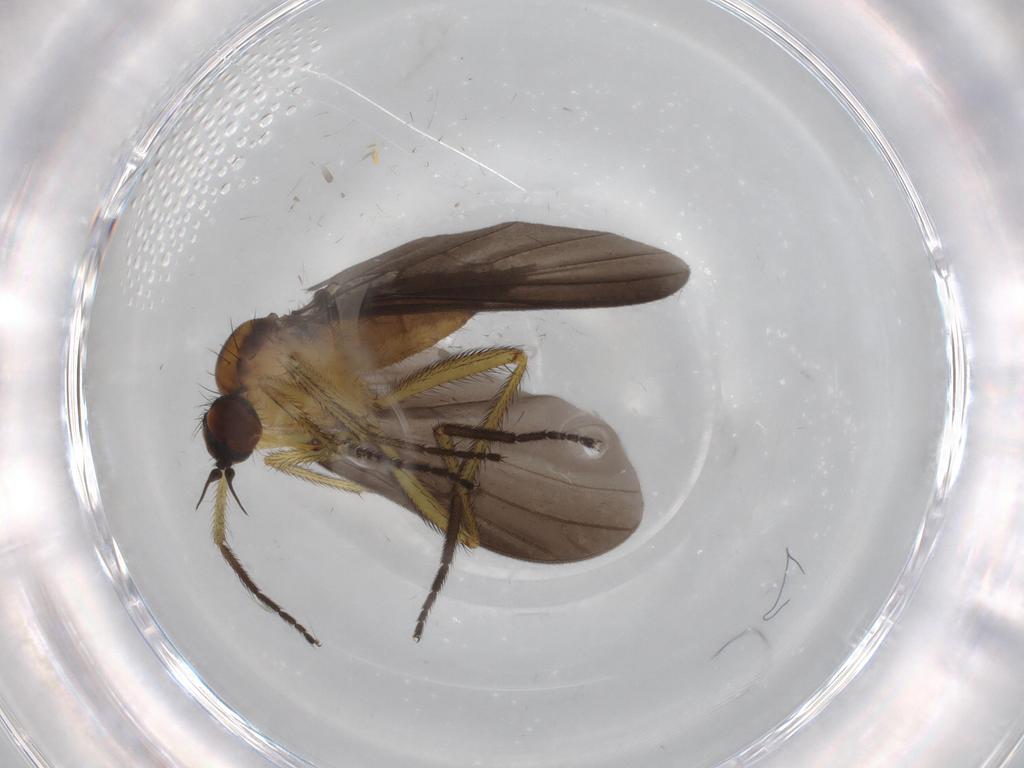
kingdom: Animalia
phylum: Arthropoda
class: Insecta
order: Diptera
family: Empididae
